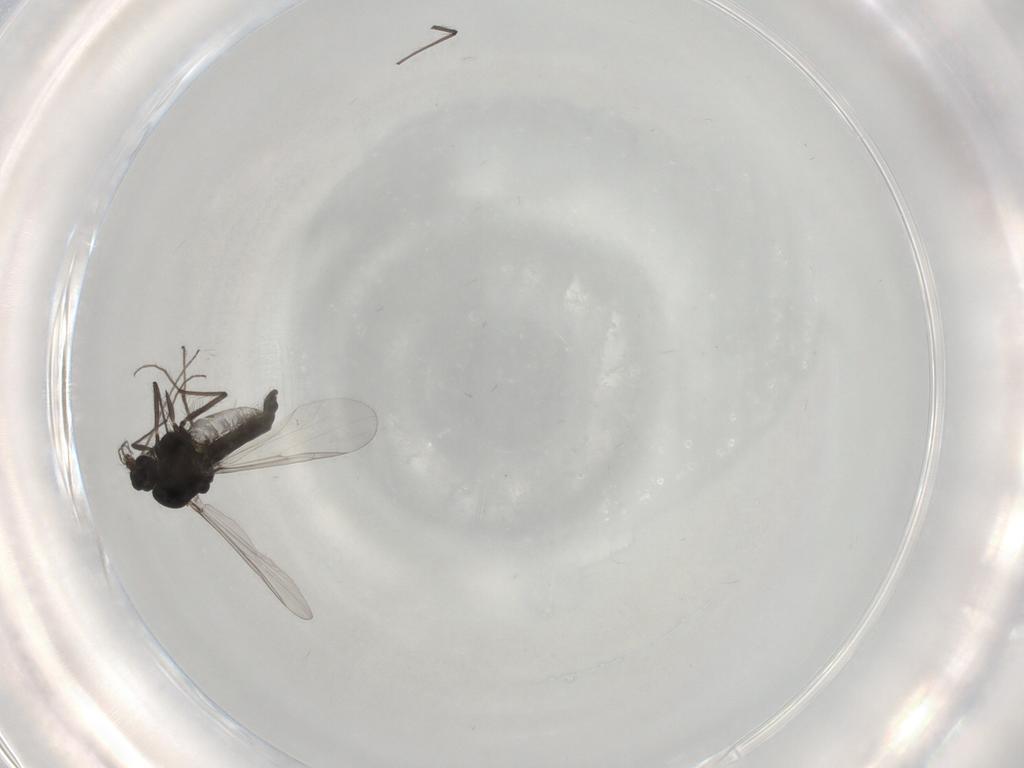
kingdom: Animalia
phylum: Arthropoda
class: Insecta
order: Diptera
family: Chironomidae
